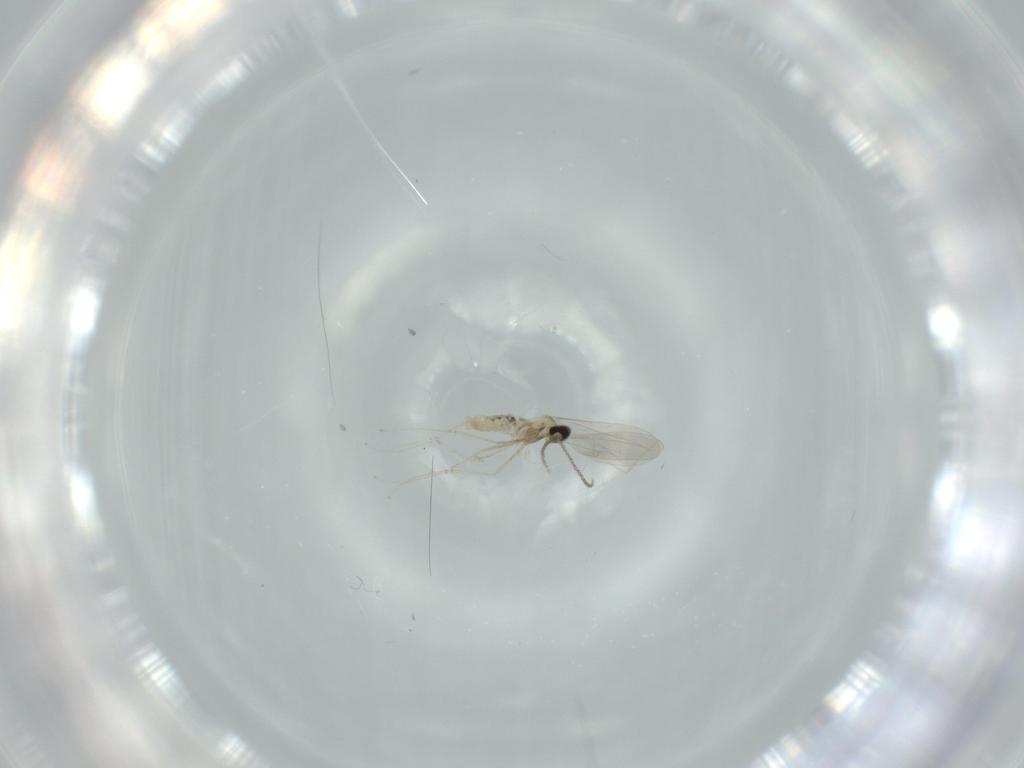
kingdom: Animalia
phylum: Arthropoda
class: Insecta
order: Diptera
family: Cecidomyiidae
